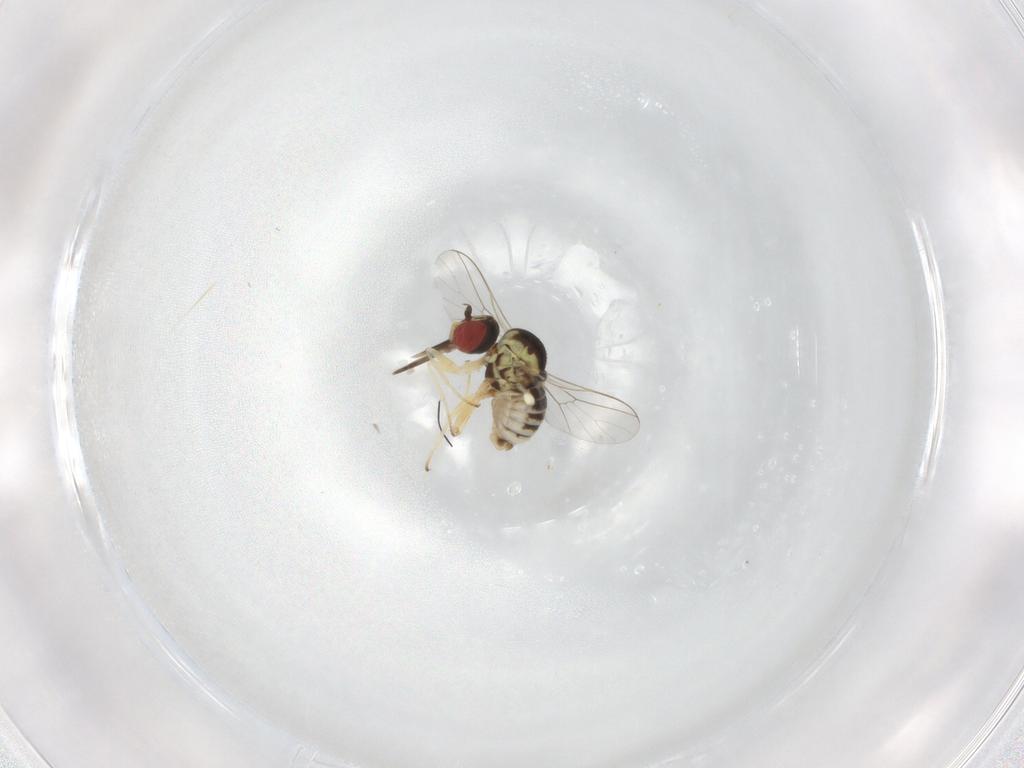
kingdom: Animalia
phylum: Arthropoda
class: Insecta
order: Diptera
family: Bombyliidae
